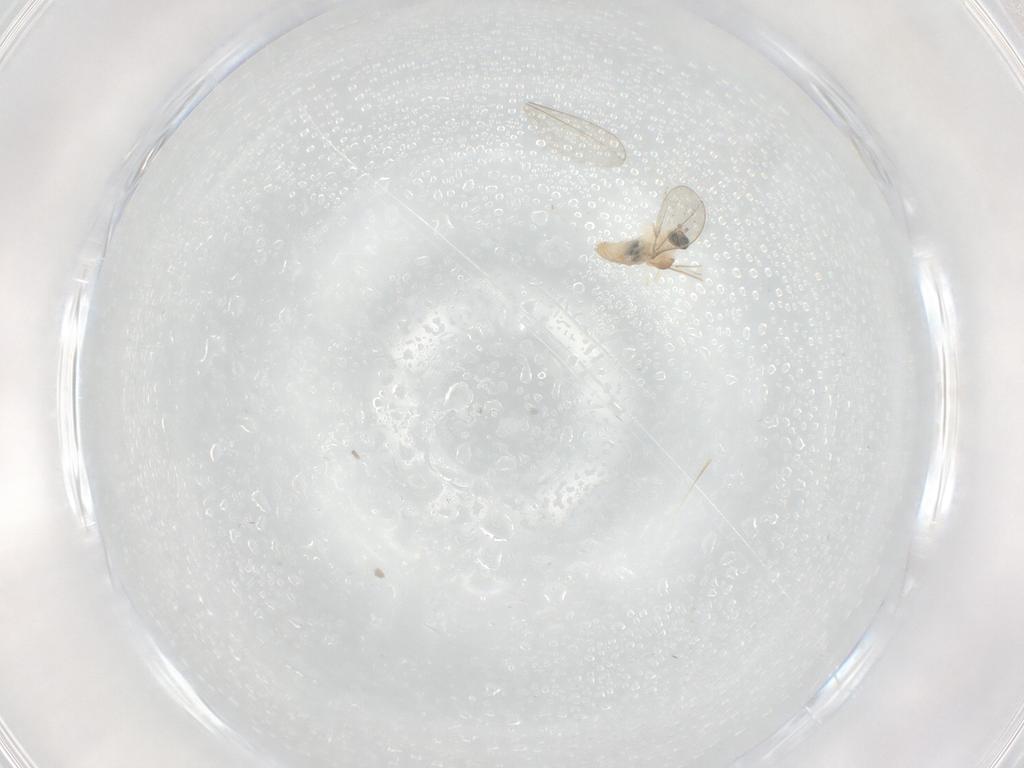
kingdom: Animalia
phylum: Arthropoda
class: Insecta
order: Diptera
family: Cecidomyiidae
